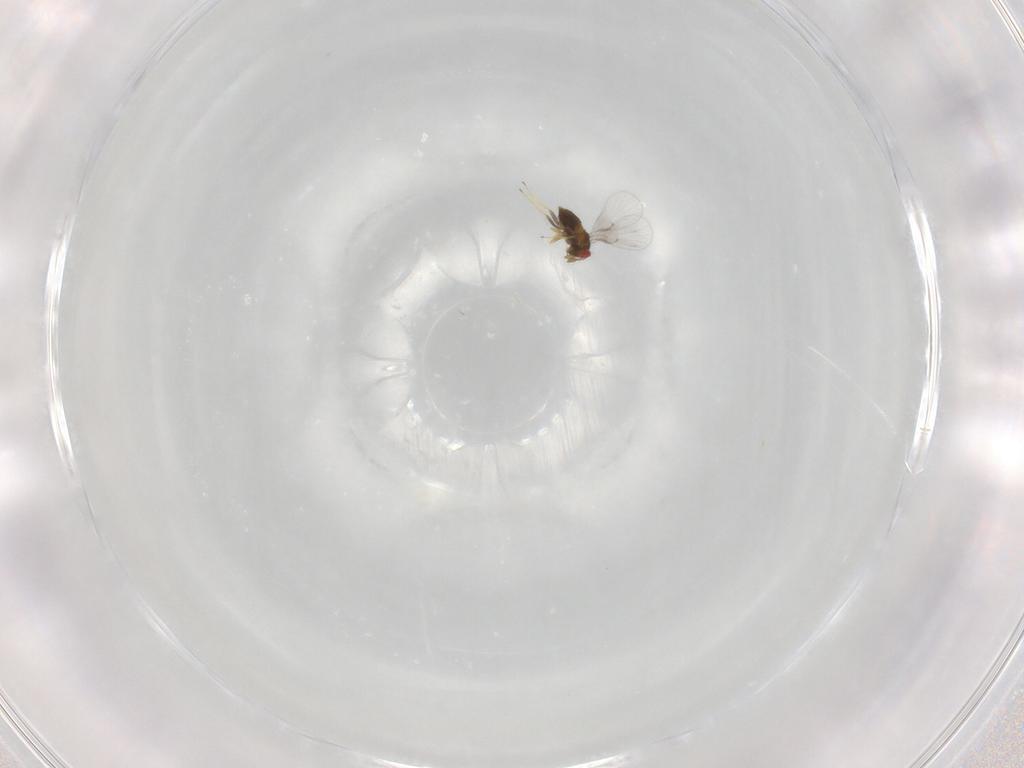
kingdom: Animalia
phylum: Arthropoda
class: Insecta
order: Hymenoptera
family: Trichogrammatidae
